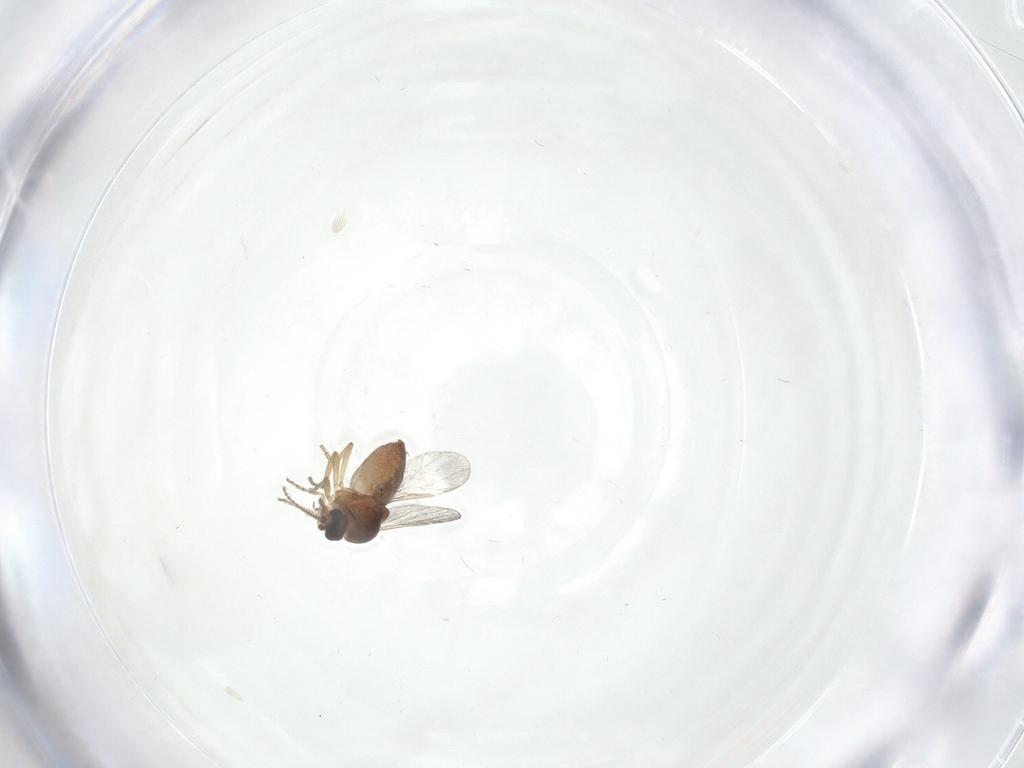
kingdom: Animalia
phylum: Arthropoda
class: Insecta
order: Diptera
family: Ceratopogonidae
